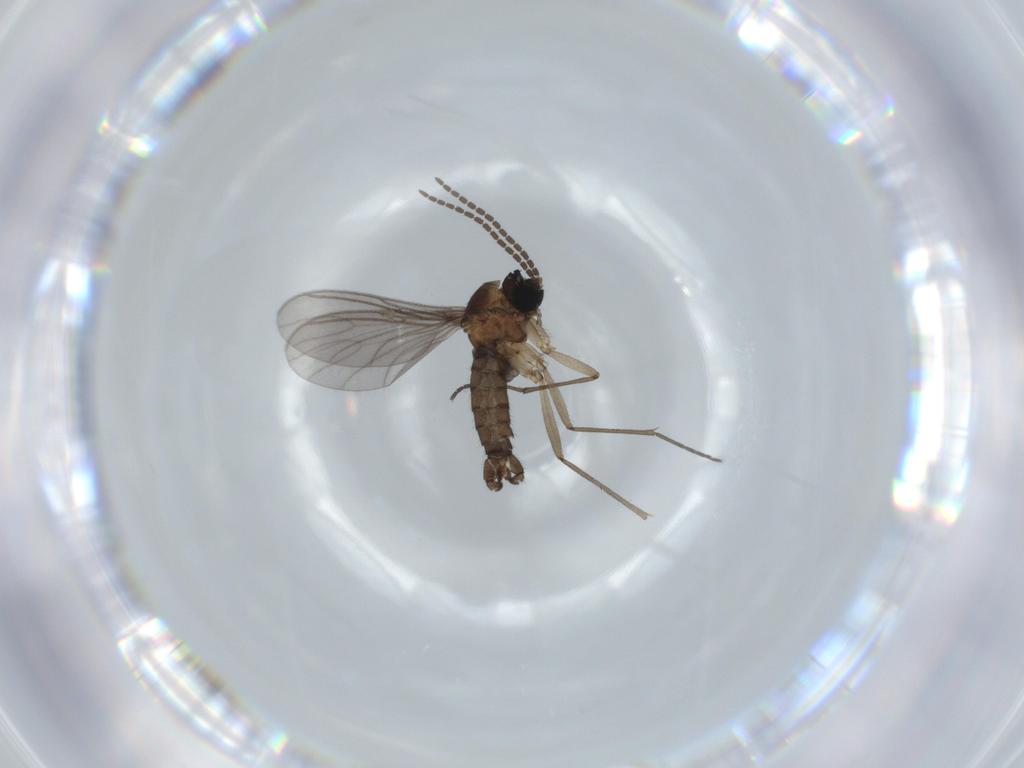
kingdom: Animalia
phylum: Arthropoda
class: Insecta
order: Diptera
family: Sciaridae
